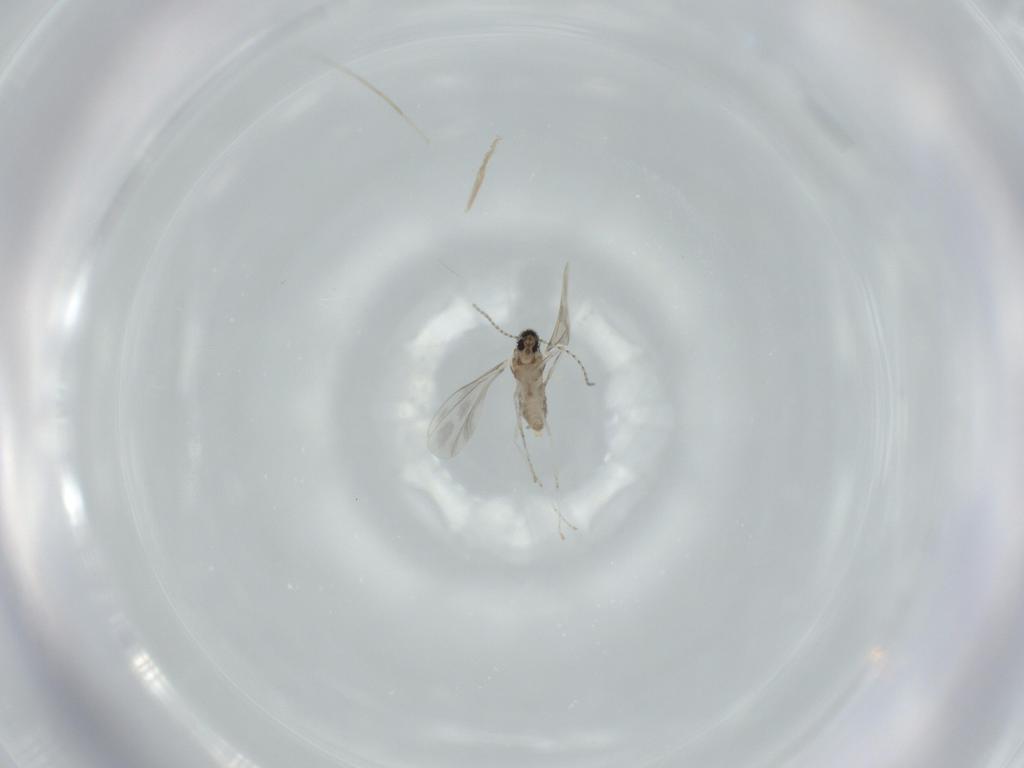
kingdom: Animalia
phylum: Arthropoda
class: Insecta
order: Diptera
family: Cecidomyiidae
